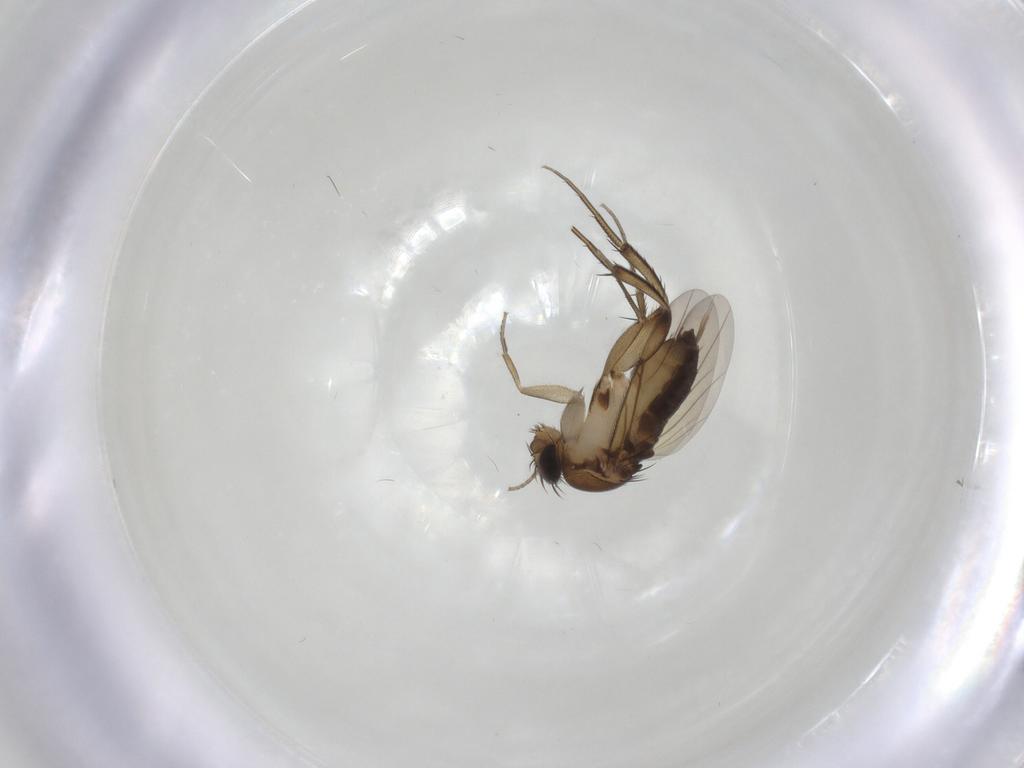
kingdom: Animalia
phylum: Arthropoda
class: Insecta
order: Diptera
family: Phoridae
